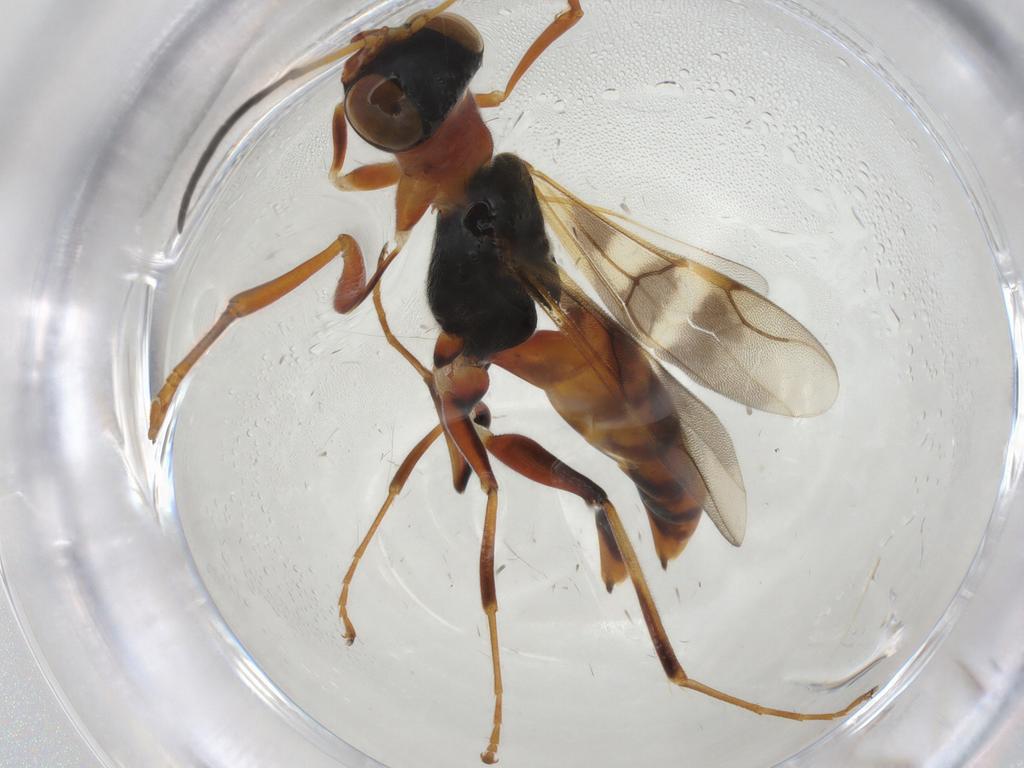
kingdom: Animalia
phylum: Arthropoda
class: Insecta
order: Hymenoptera
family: Dryinidae
